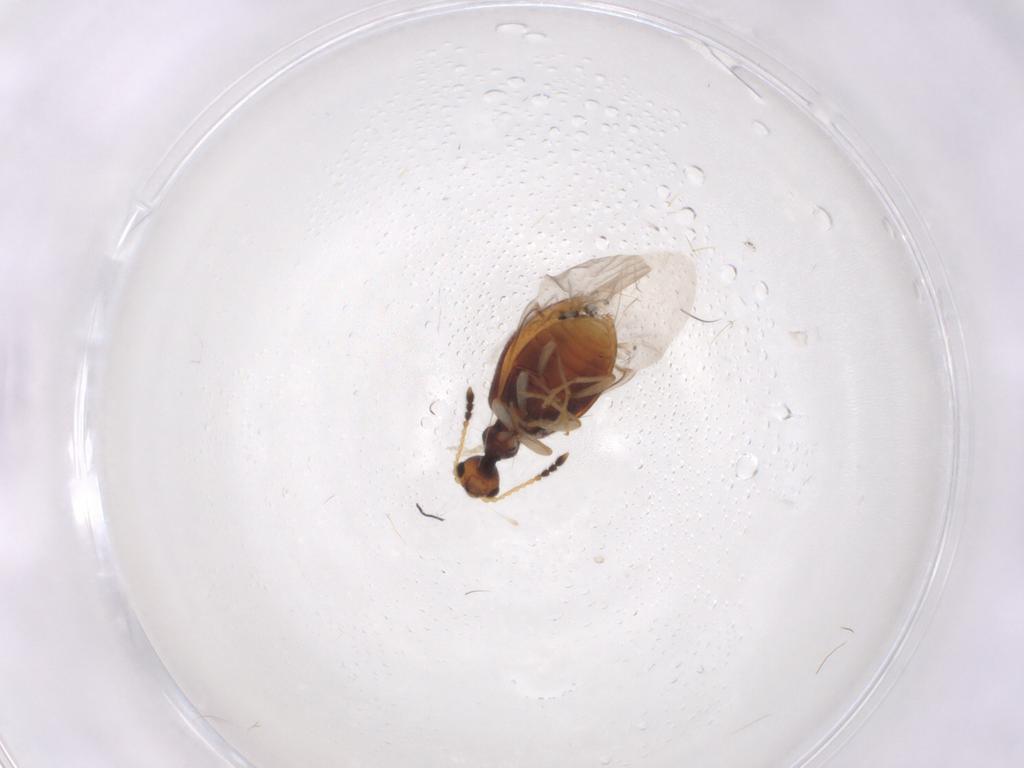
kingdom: Animalia
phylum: Arthropoda
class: Insecta
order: Coleoptera
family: Anthicidae
